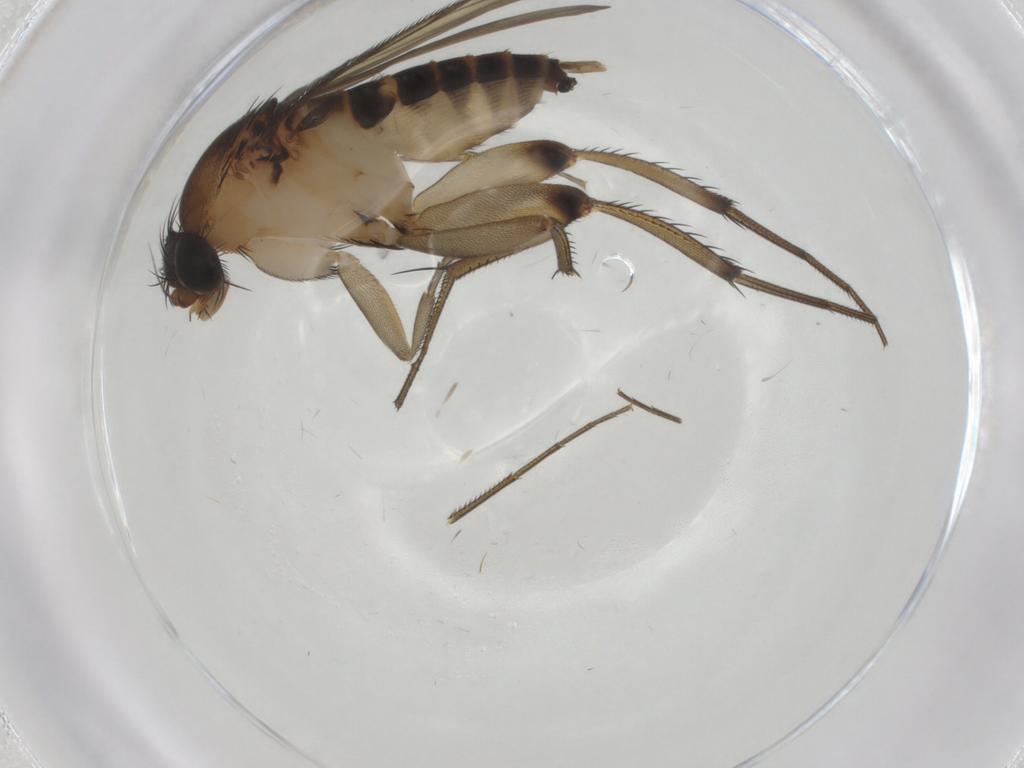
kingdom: Animalia
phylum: Arthropoda
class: Insecta
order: Diptera
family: Phoridae
